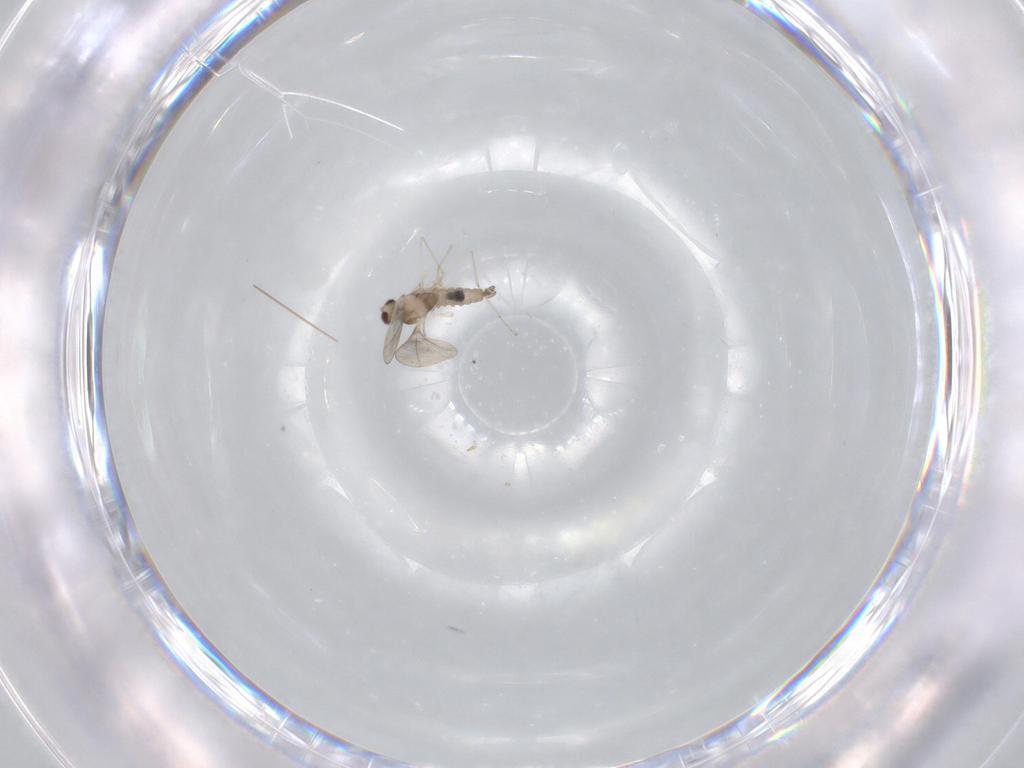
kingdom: Animalia
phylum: Arthropoda
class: Insecta
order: Diptera
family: Cecidomyiidae
